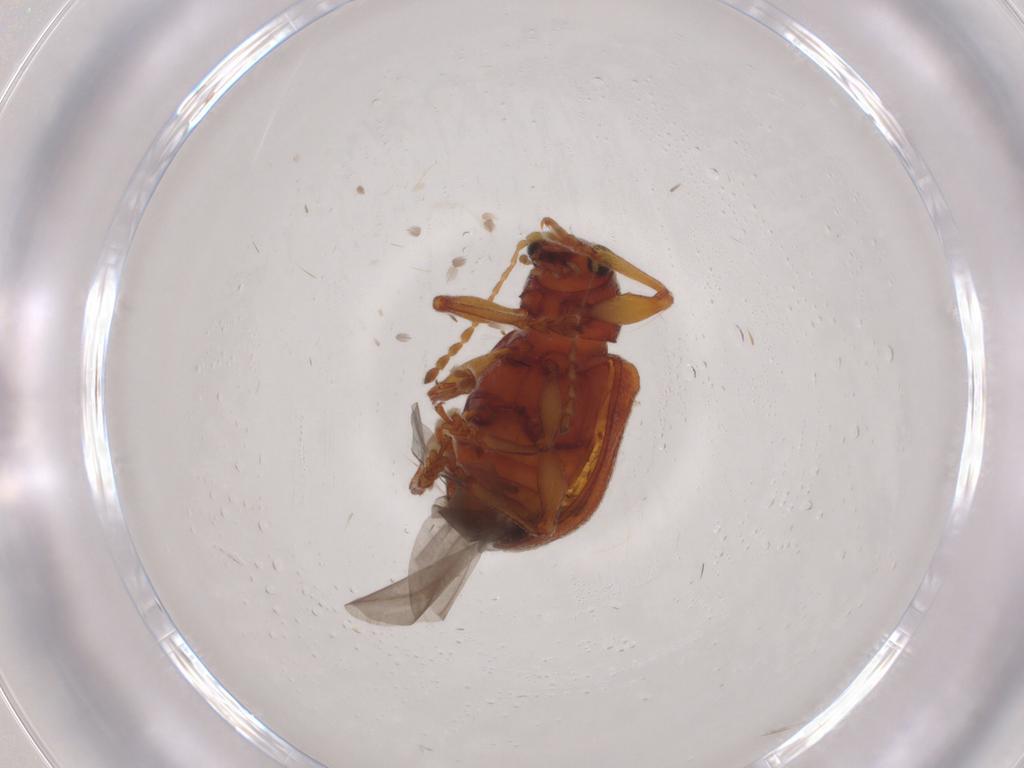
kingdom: Animalia
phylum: Arthropoda
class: Insecta
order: Coleoptera
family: Chrysomelidae
